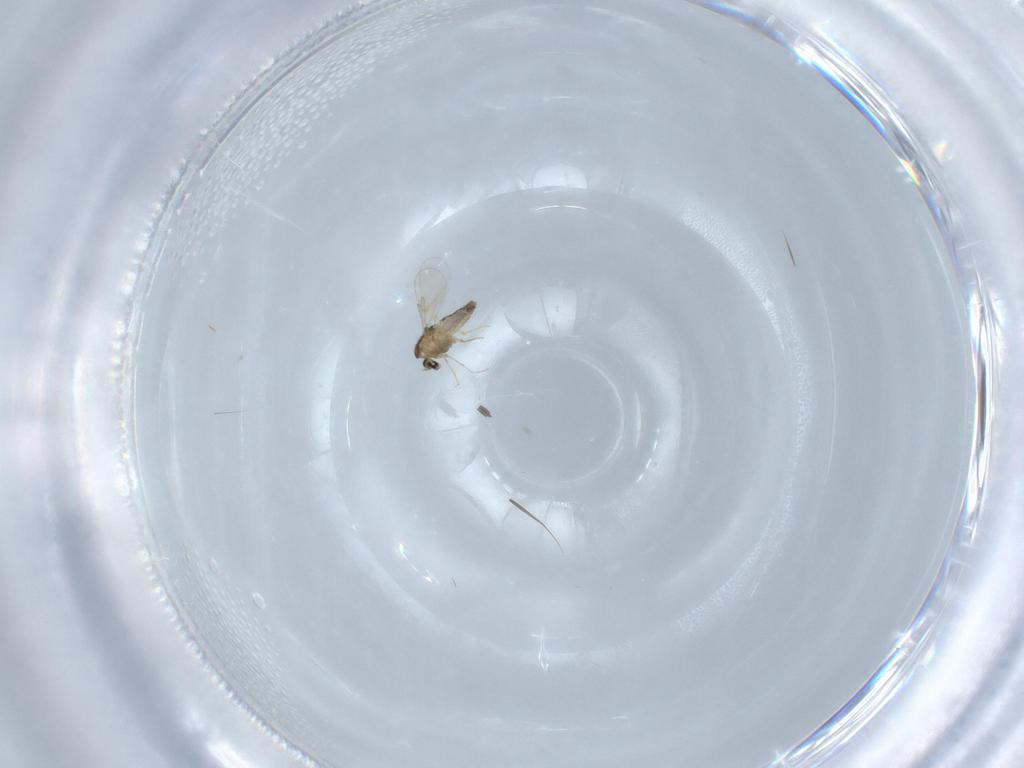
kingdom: Animalia
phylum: Arthropoda
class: Insecta
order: Diptera
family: Chironomidae
